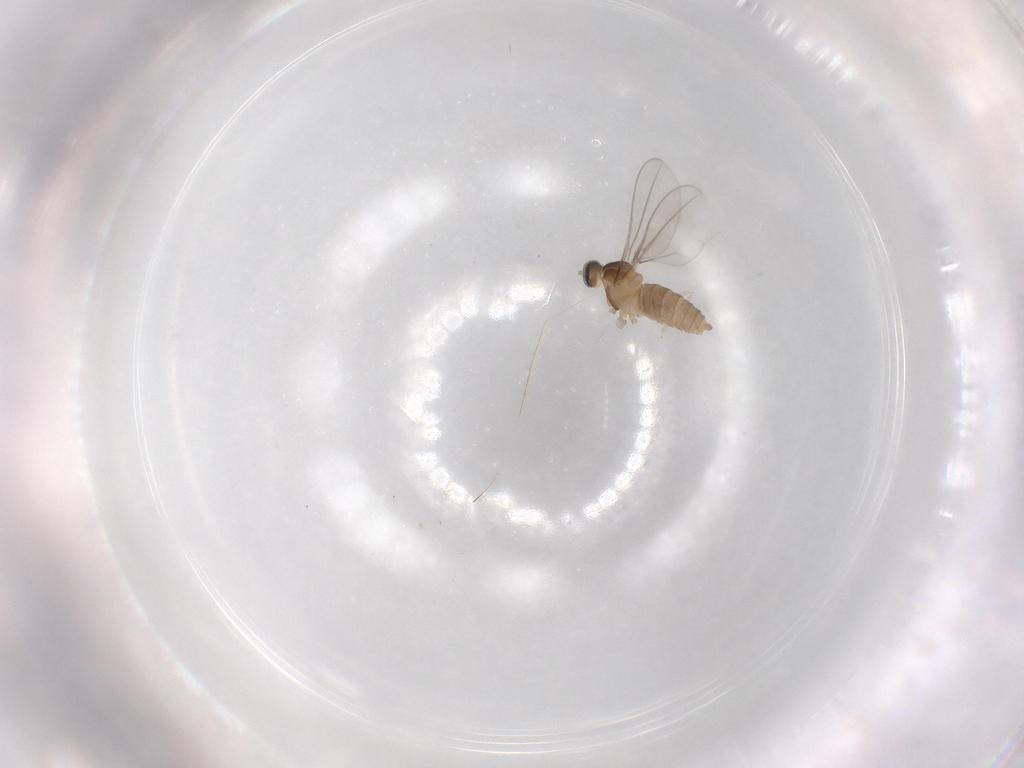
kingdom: Animalia
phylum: Arthropoda
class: Insecta
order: Diptera
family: Cecidomyiidae
